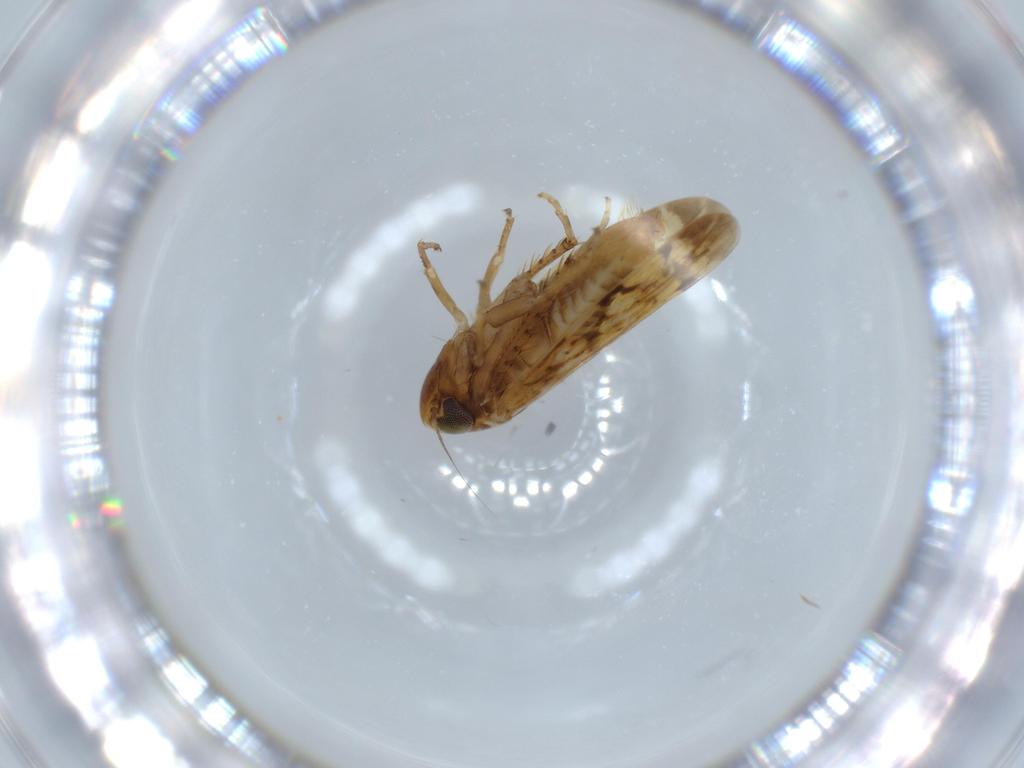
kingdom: Animalia
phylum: Arthropoda
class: Insecta
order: Hemiptera
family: Cicadellidae
